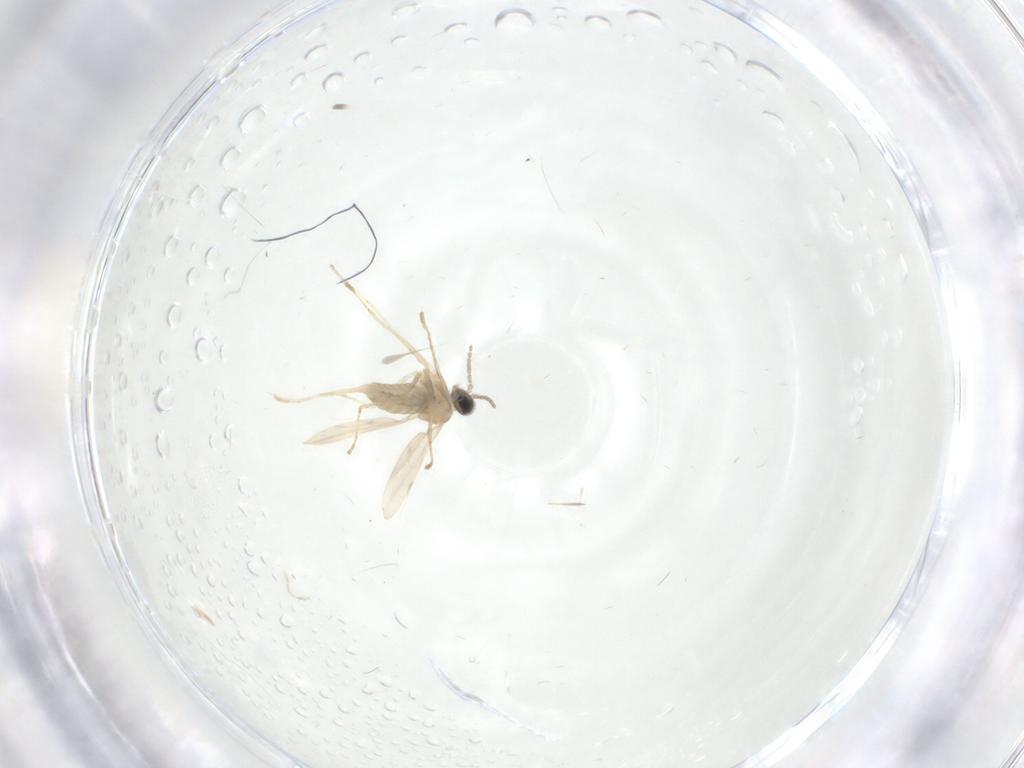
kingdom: Animalia
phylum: Arthropoda
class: Insecta
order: Diptera
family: Cecidomyiidae
